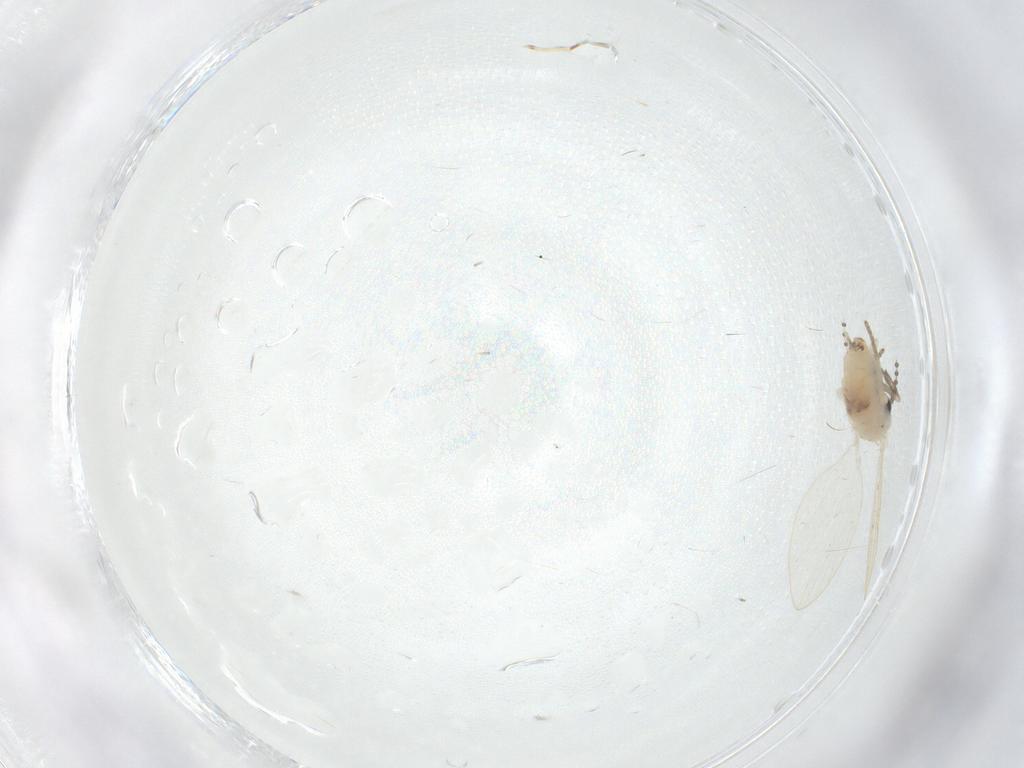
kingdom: Animalia
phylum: Arthropoda
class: Insecta
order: Diptera
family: Psychodidae
